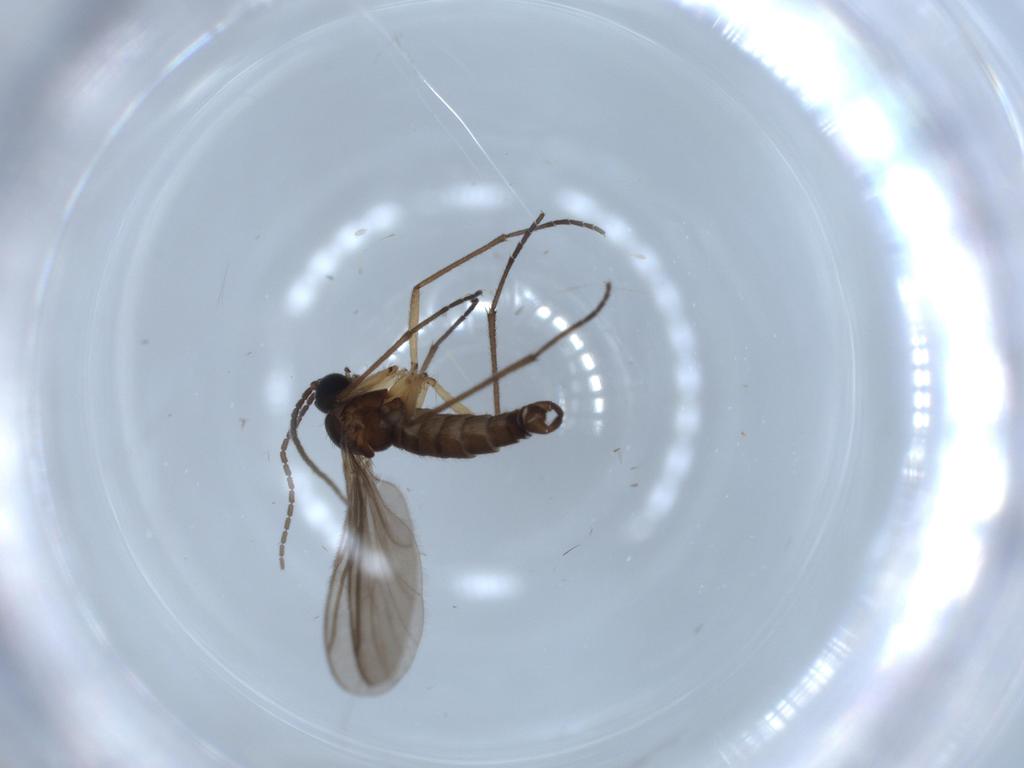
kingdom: Animalia
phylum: Arthropoda
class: Insecta
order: Diptera
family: Sciaridae
